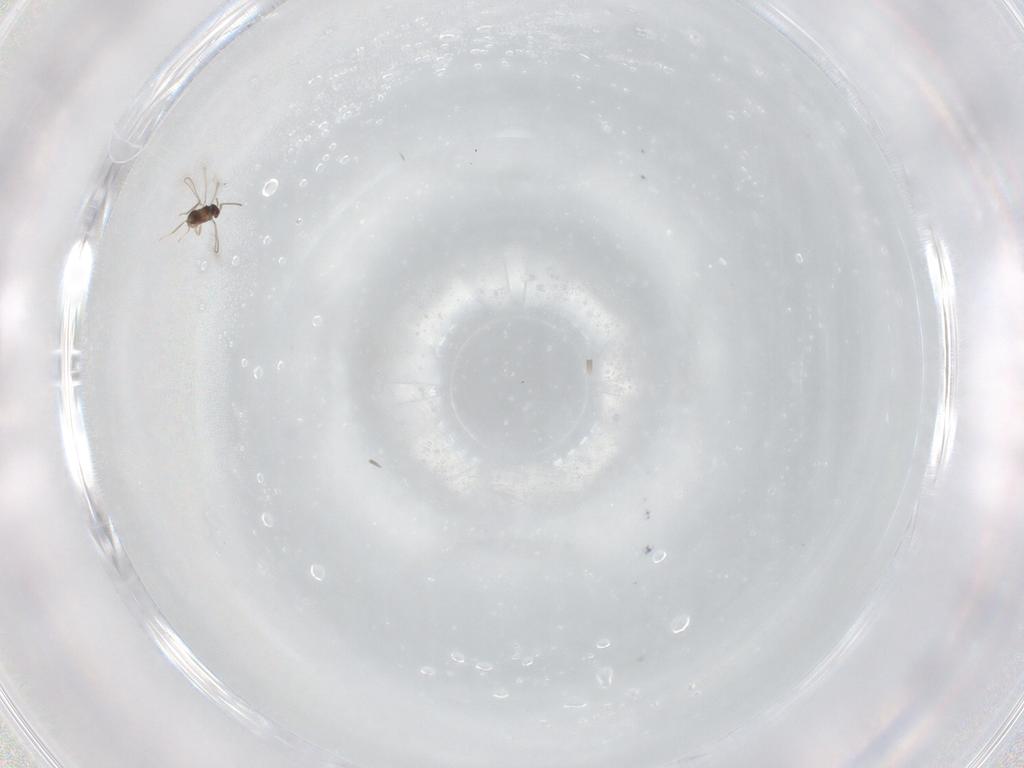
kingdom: Animalia
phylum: Arthropoda
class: Insecta
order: Hymenoptera
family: Mymaridae
